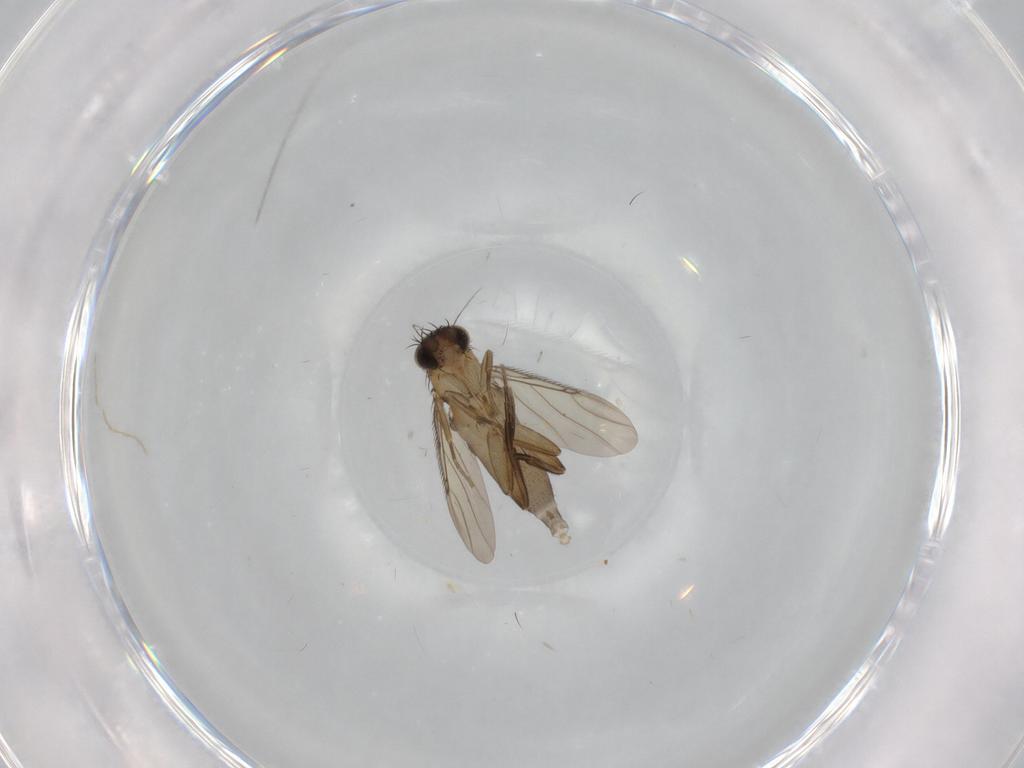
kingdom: Animalia
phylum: Arthropoda
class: Insecta
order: Diptera
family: Phoridae
